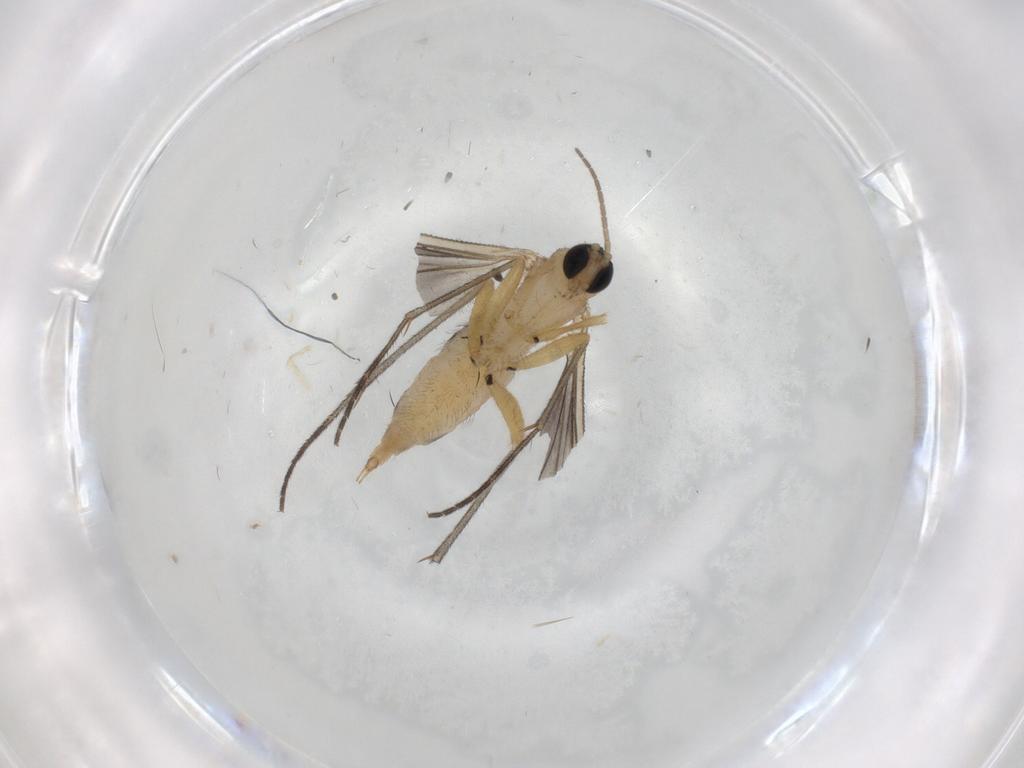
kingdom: Animalia
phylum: Arthropoda
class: Insecta
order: Diptera
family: Sciaridae
